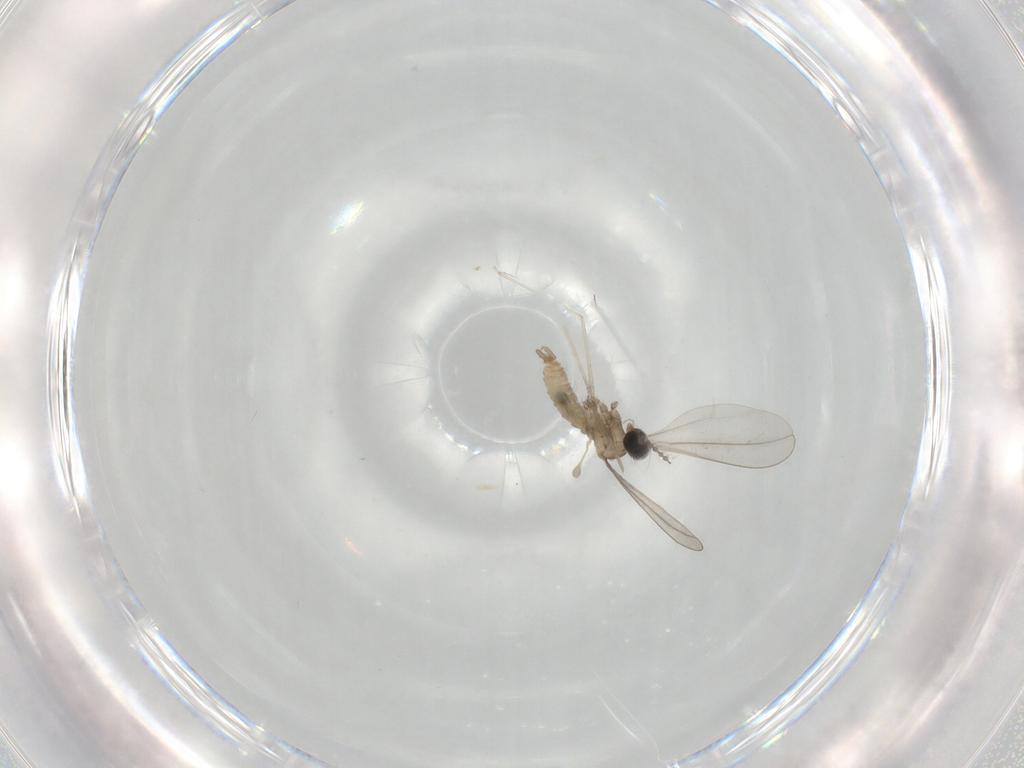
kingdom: Animalia
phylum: Arthropoda
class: Insecta
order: Diptera
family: Cecidomyiidae
